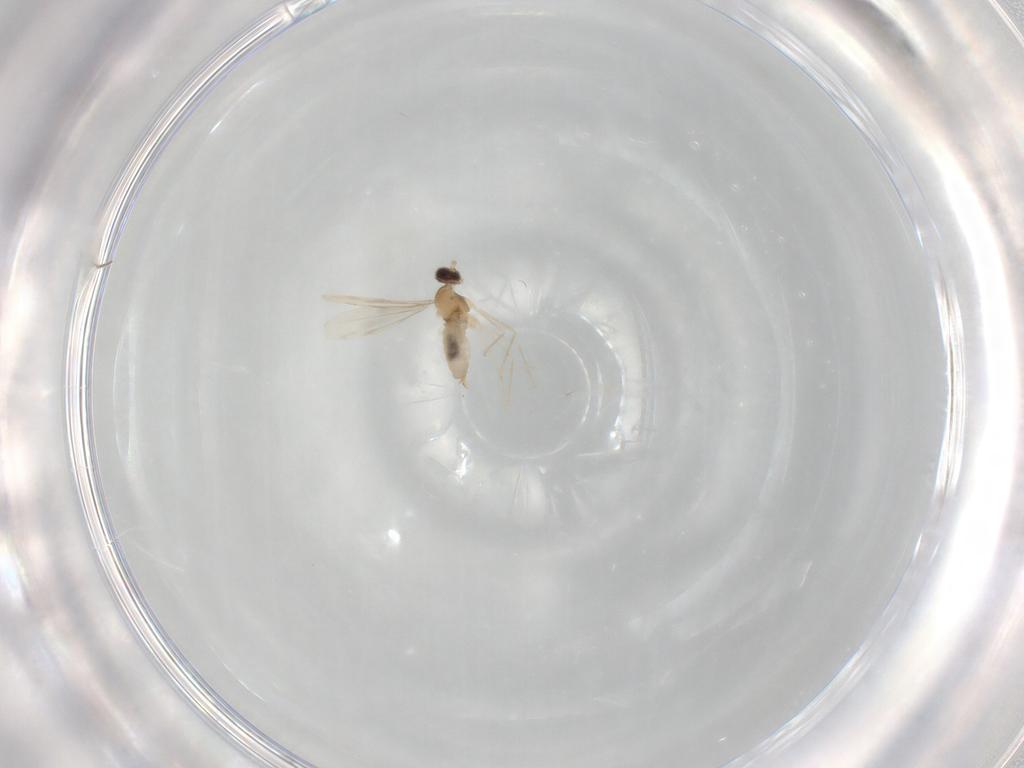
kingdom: Animalia
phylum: Arthropoda
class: Insecta
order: Diptera
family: Cecidomyiidae
